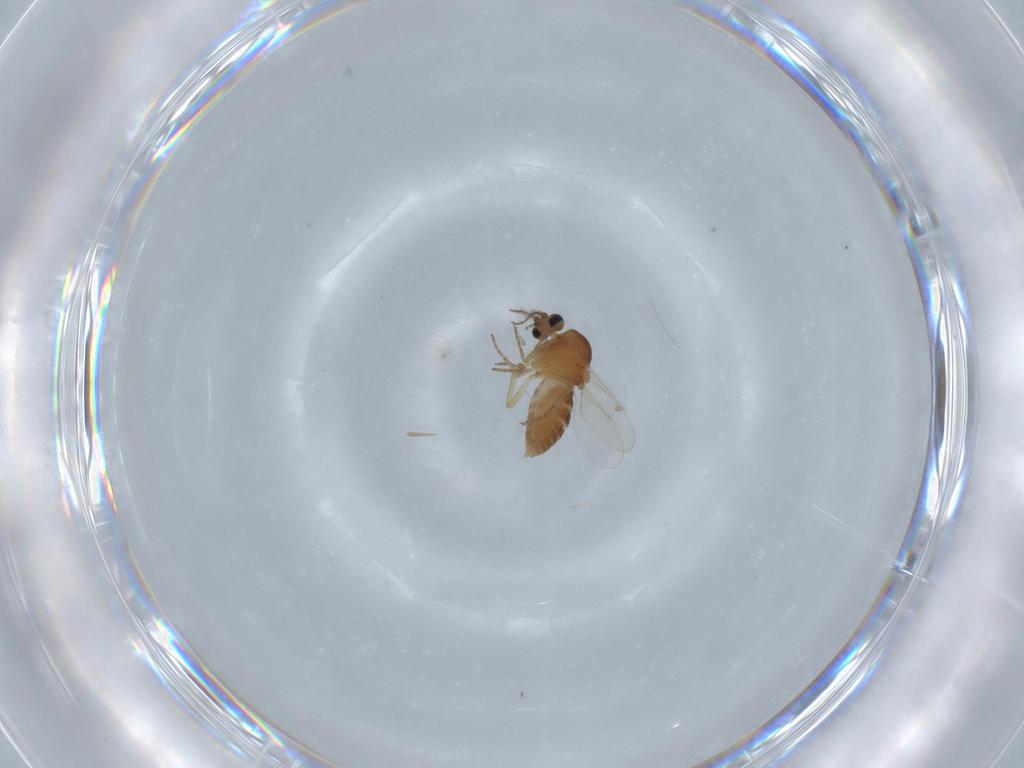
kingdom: Animalia
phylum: Arthropoda
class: Insecta
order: Diptera
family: Ceratopogonidae
